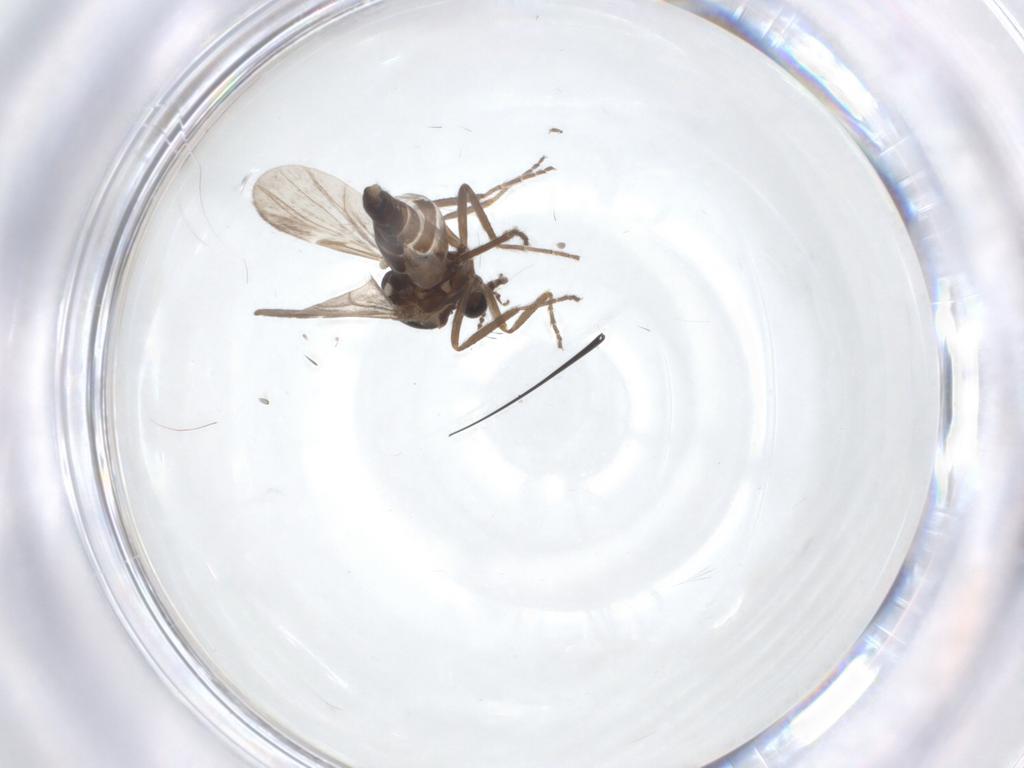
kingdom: Animalia
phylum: Arthropoda
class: Insecta
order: Diptera
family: Ceratopogonidae
